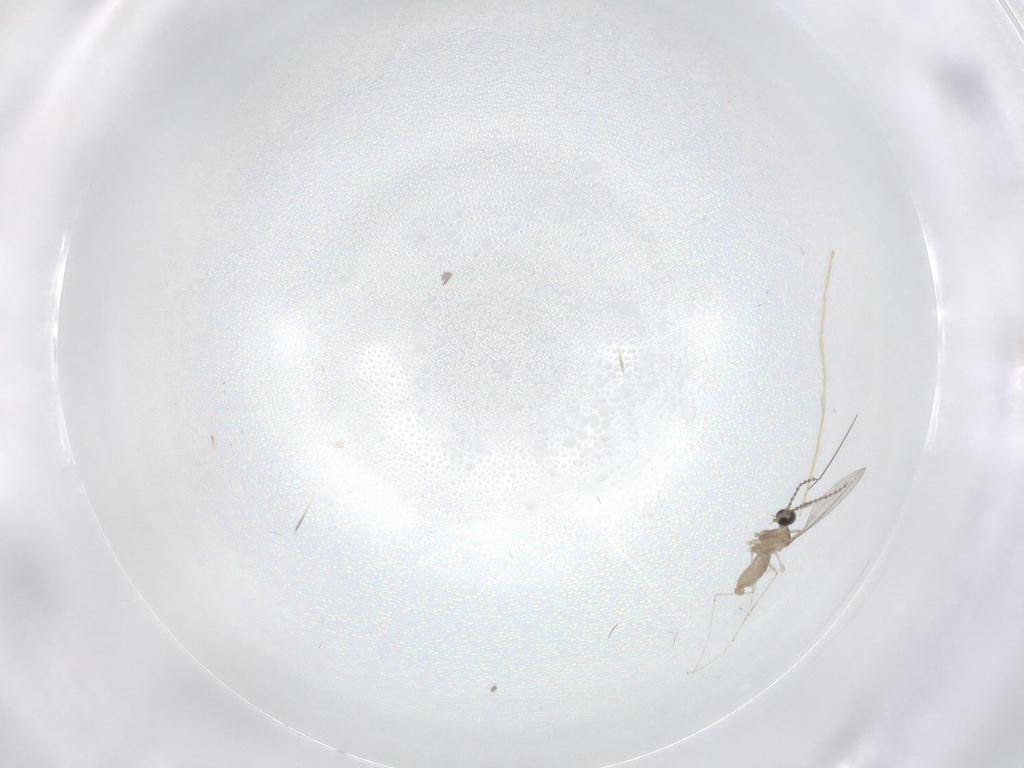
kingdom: Animalia
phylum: Arthropoda
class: Insecta
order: Diptera
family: Cecidomyiidae
